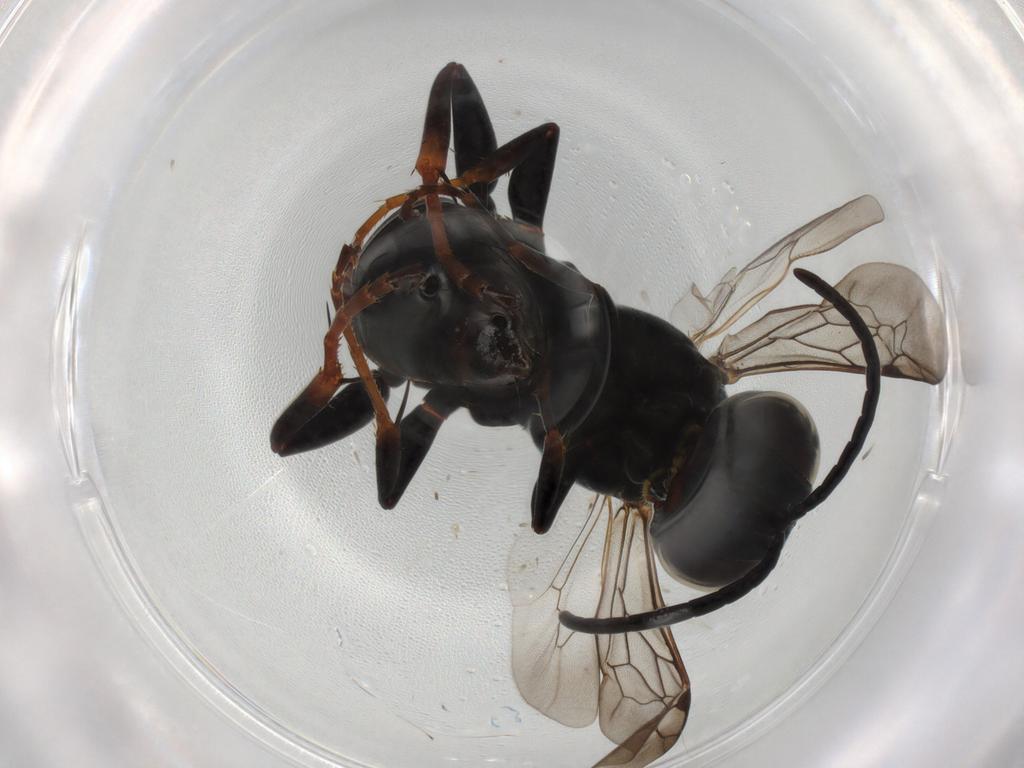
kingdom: Animalia
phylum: Arthropoda
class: Insecta
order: Hymenoptera
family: Crabronidae
